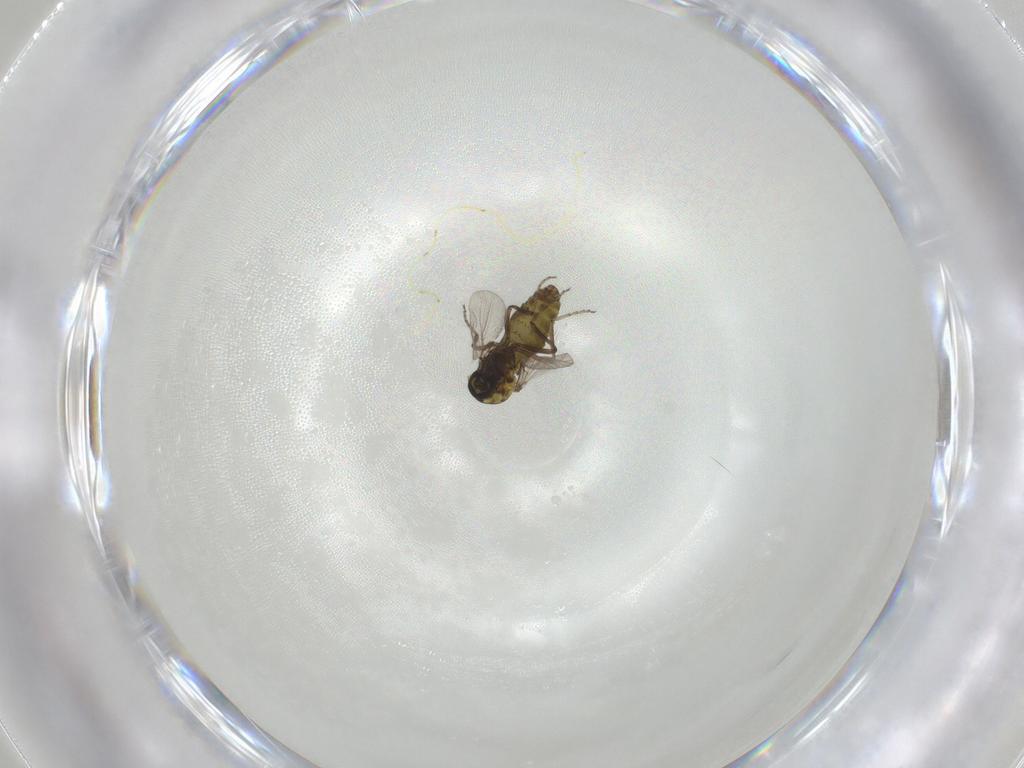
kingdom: Animalia
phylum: Arthropoda
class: Insecta
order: Diptera
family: Ceratopogonidae
